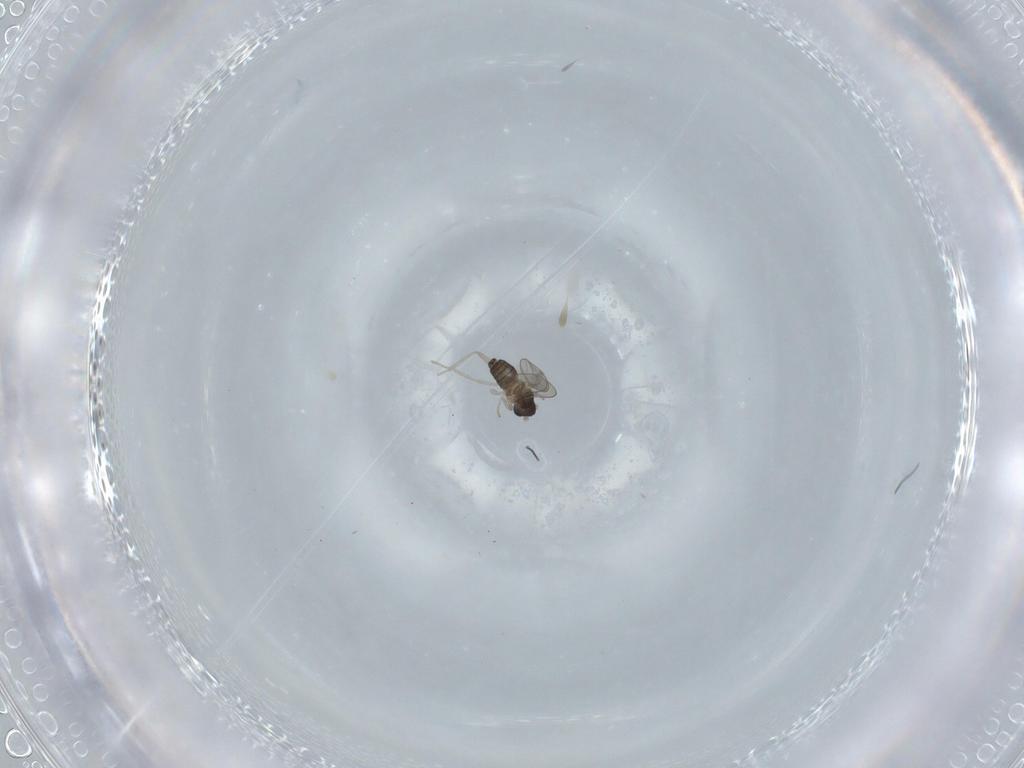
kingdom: Animalia
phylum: Arthropoda
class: Insecta
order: Diptera
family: Cecidomyiidae
